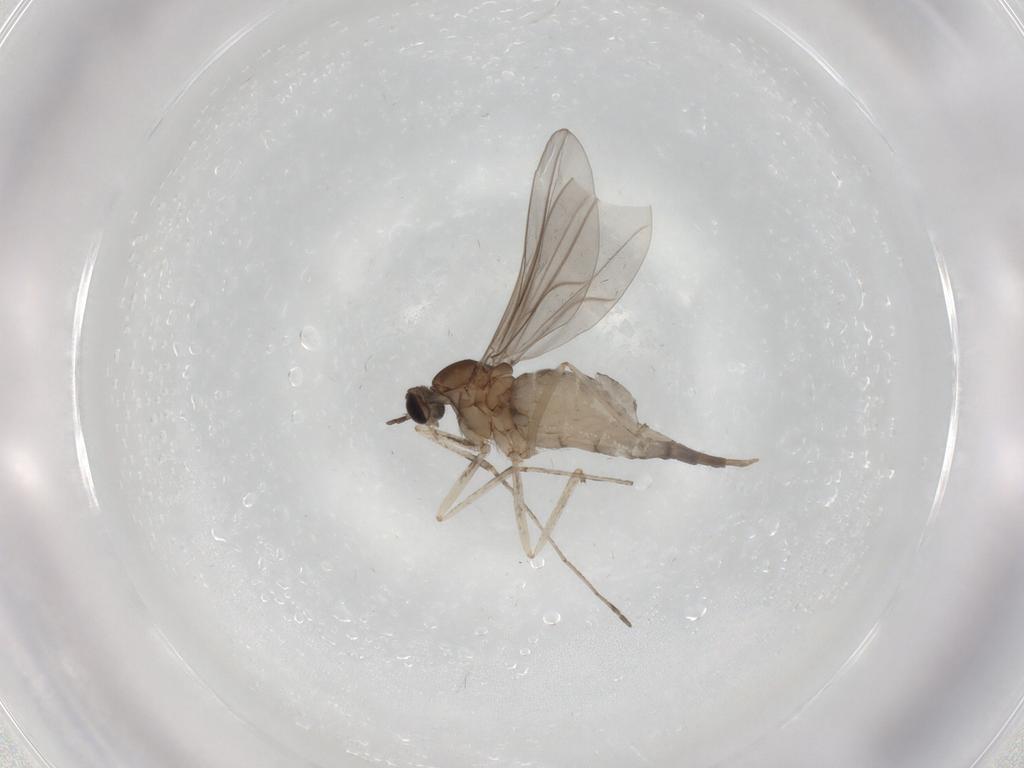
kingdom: Animalia
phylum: Arthropoda
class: Insecta
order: Diptera
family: Cecidomyiidae
